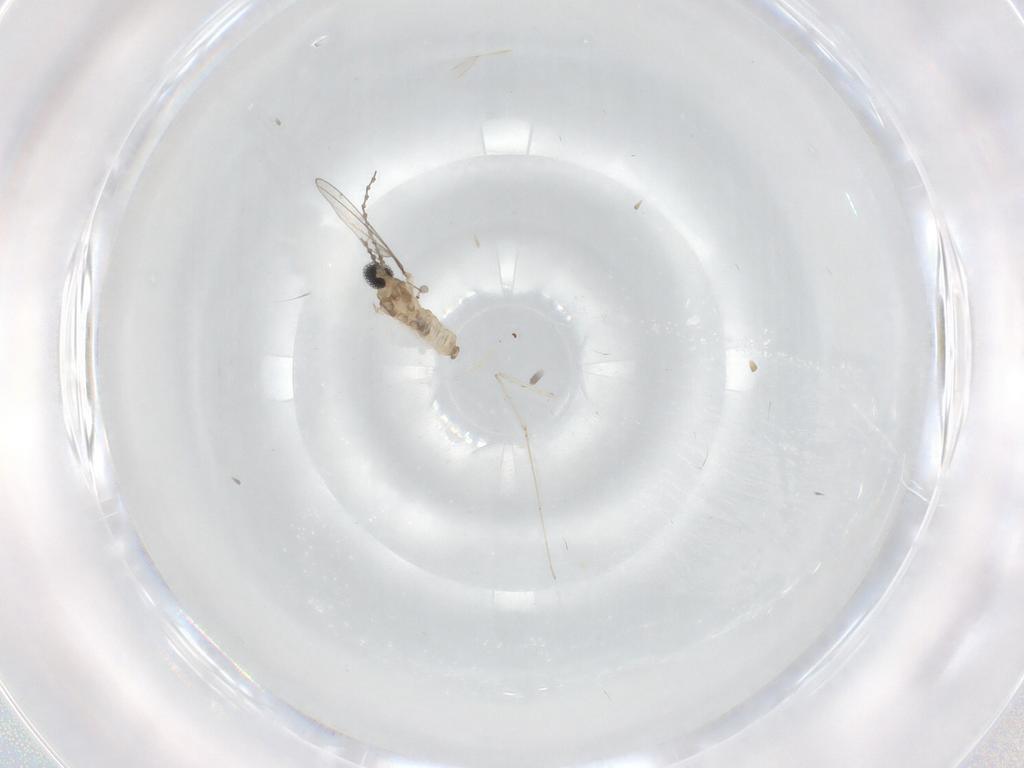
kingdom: Animalia
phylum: Arthropoda
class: Insecta
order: Diptera
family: Cecidomyiidae
